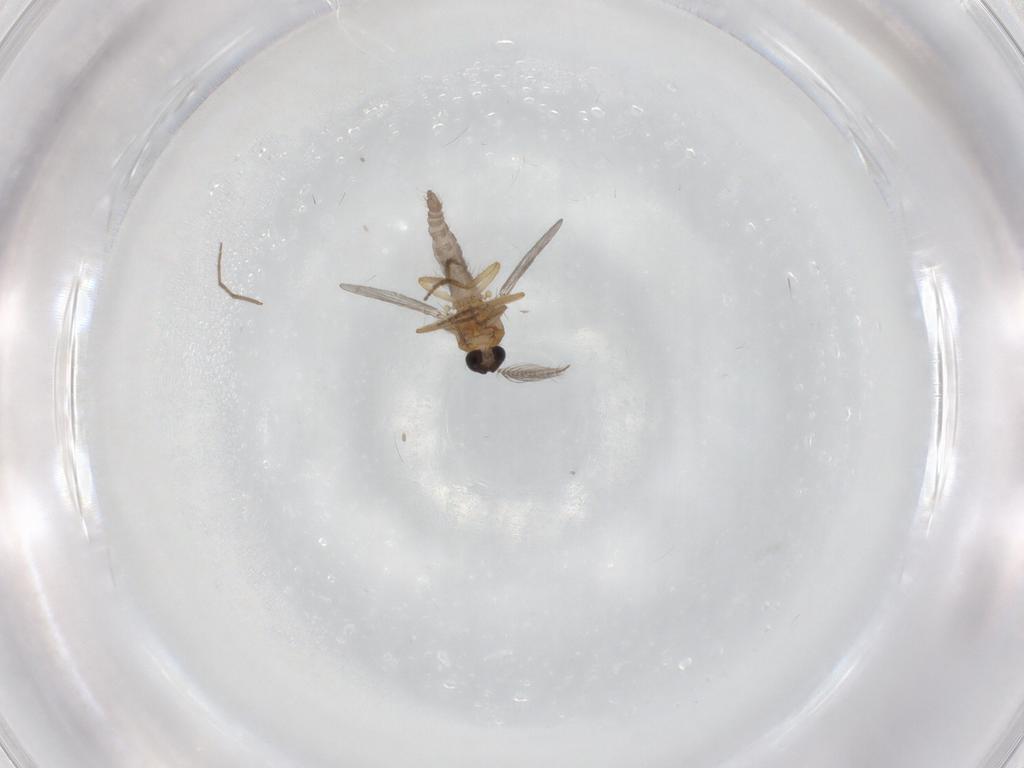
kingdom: Animalia
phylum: Arthropoda
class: Insecta
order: Diptera
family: Ceratopogonidae
